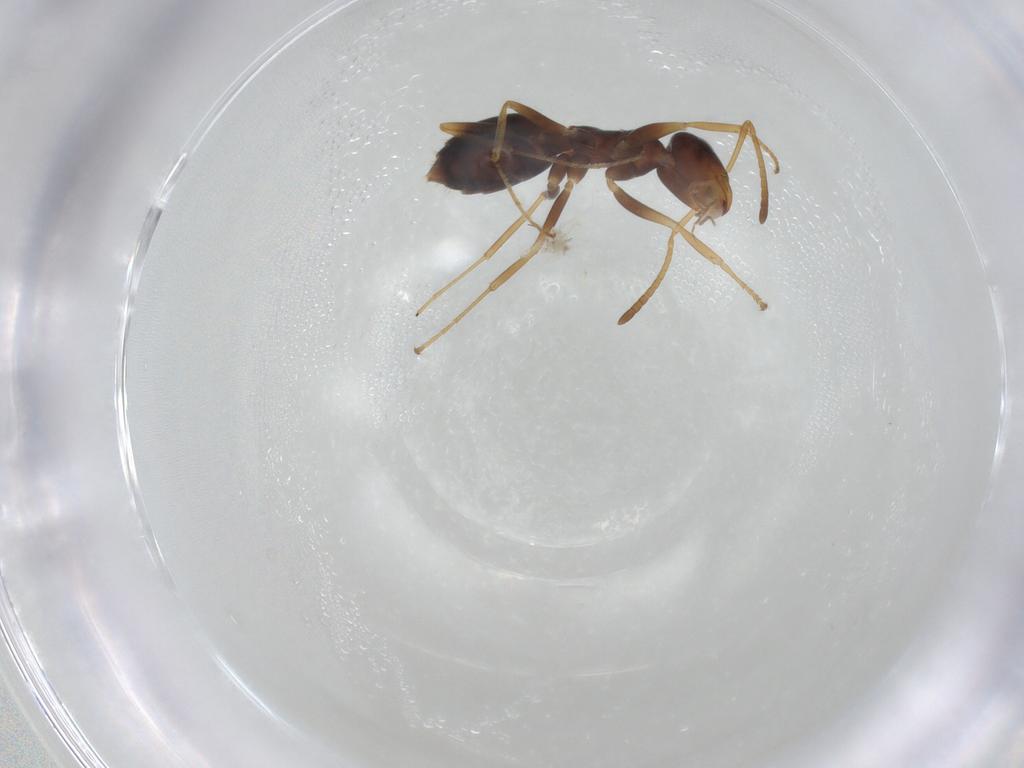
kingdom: Animalia
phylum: Arthropoda
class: Insecta
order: Hymenoptera
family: Formicidae
